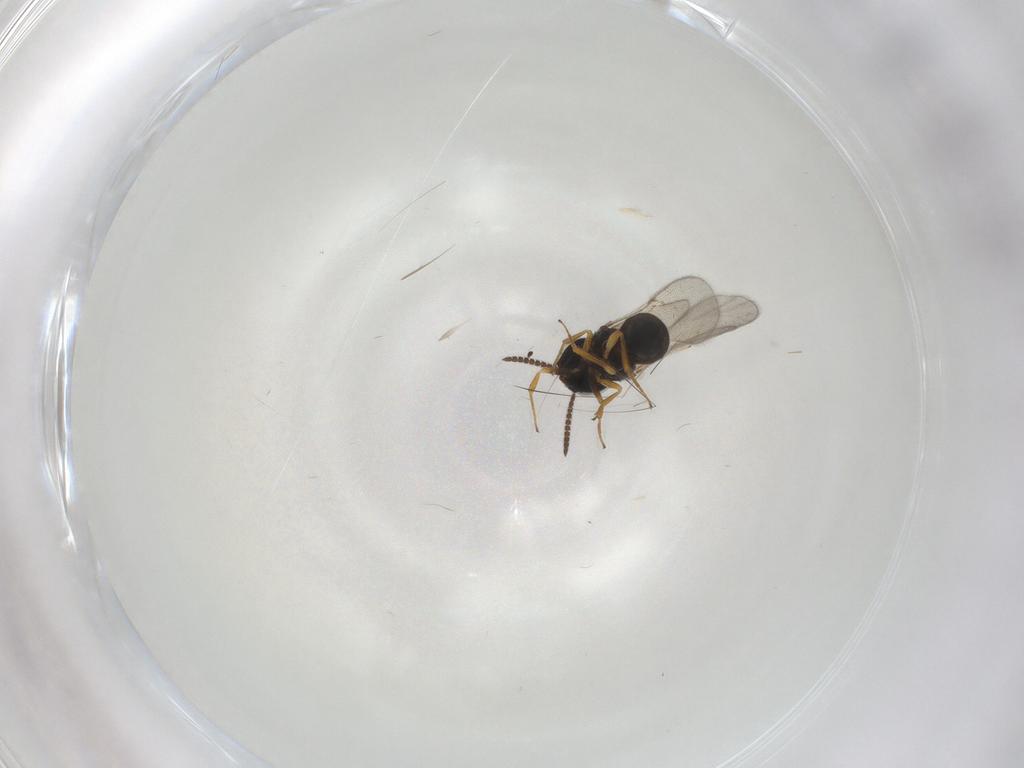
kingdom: Animalia
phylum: Arthropoda
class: Insecta
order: Hymenoptera
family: Scelionidae
